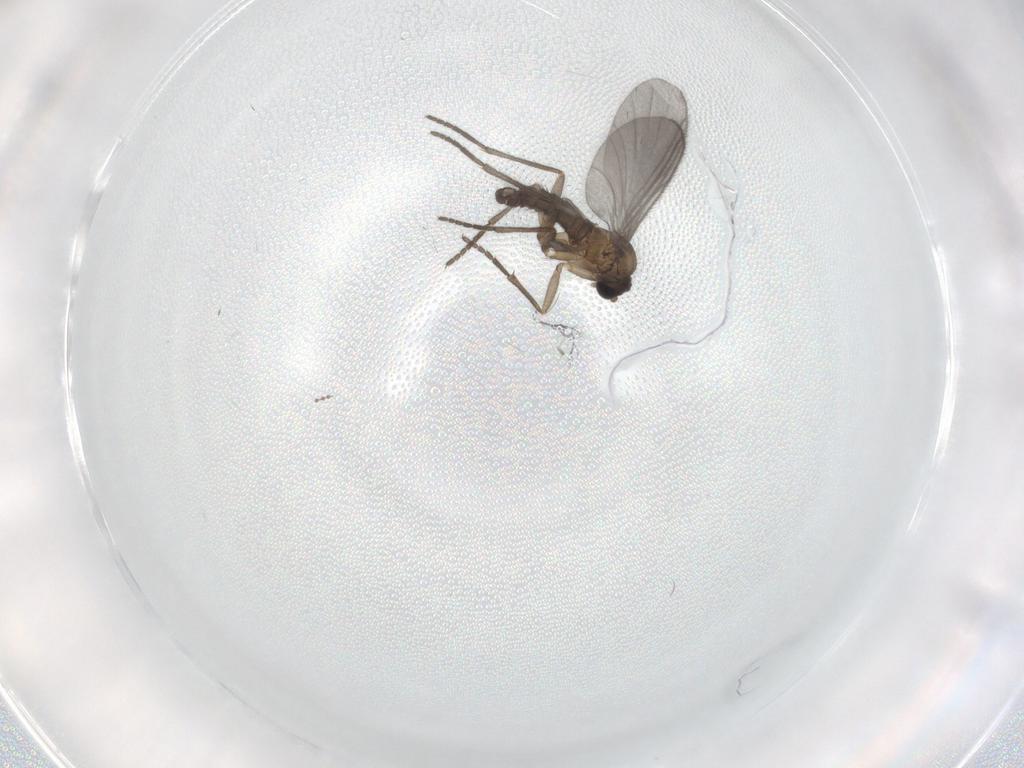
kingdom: Animalia
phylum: Arthropoda
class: Insecta
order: Diptera
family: Sciaridae
